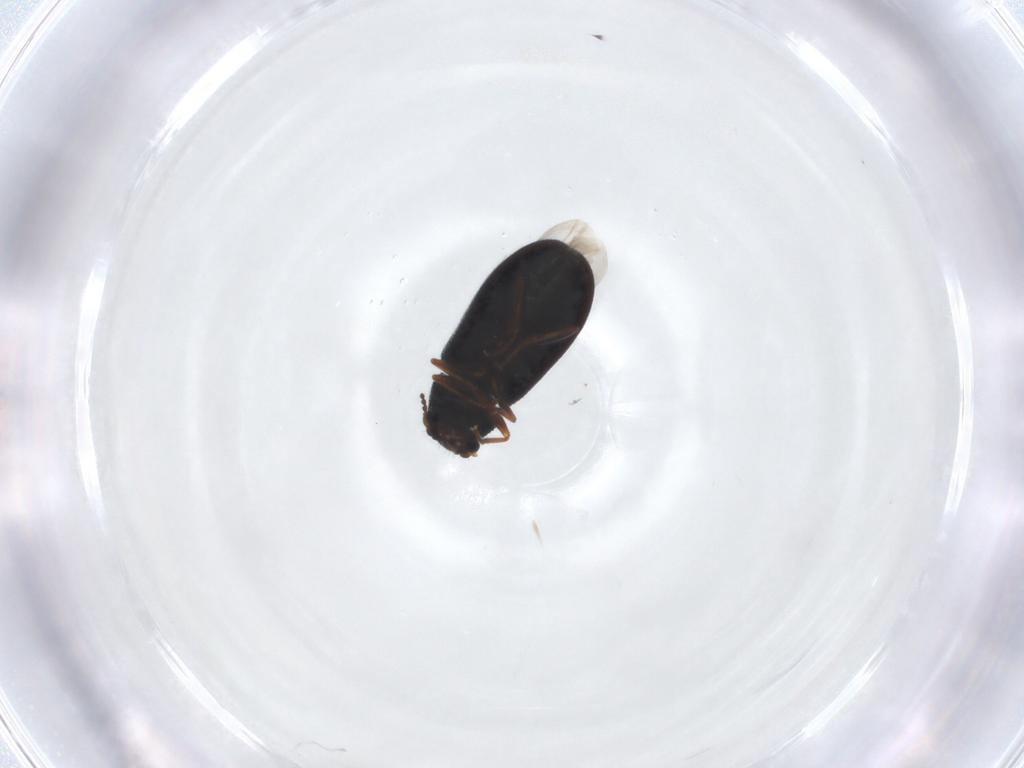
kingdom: Animalia
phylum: Arthropoda
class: Insecta
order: Coleoptera
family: Melyridae
